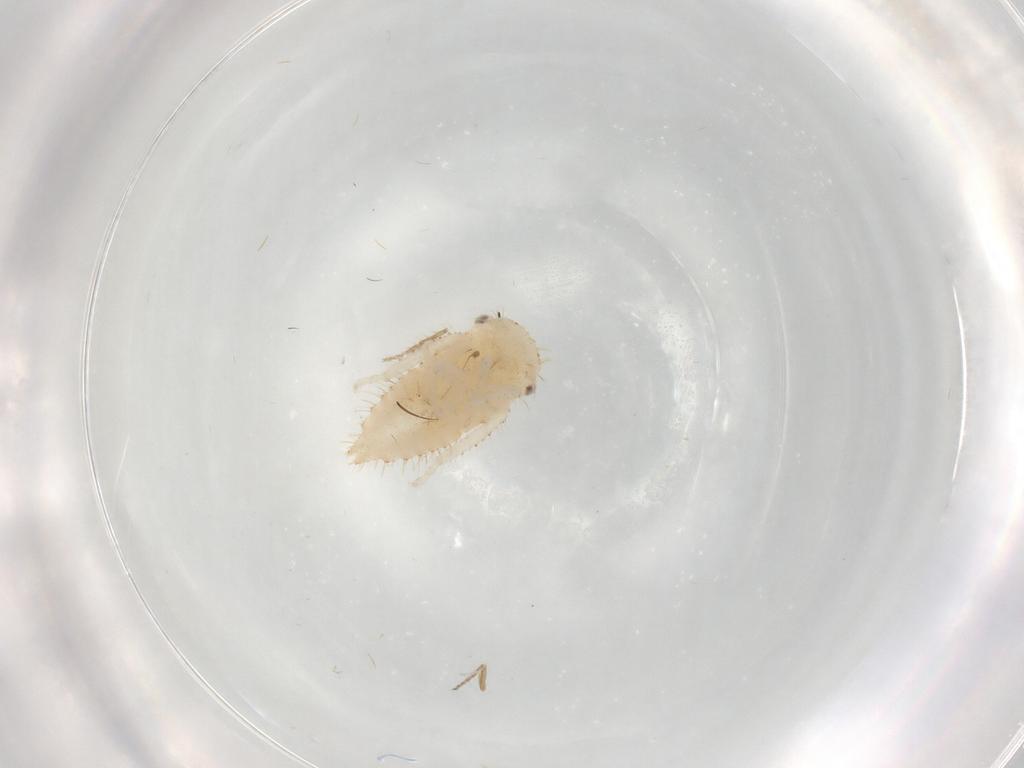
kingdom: Animalia
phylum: Arthropoda
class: Insecta
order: Hemiptera
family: Cicadellidae
